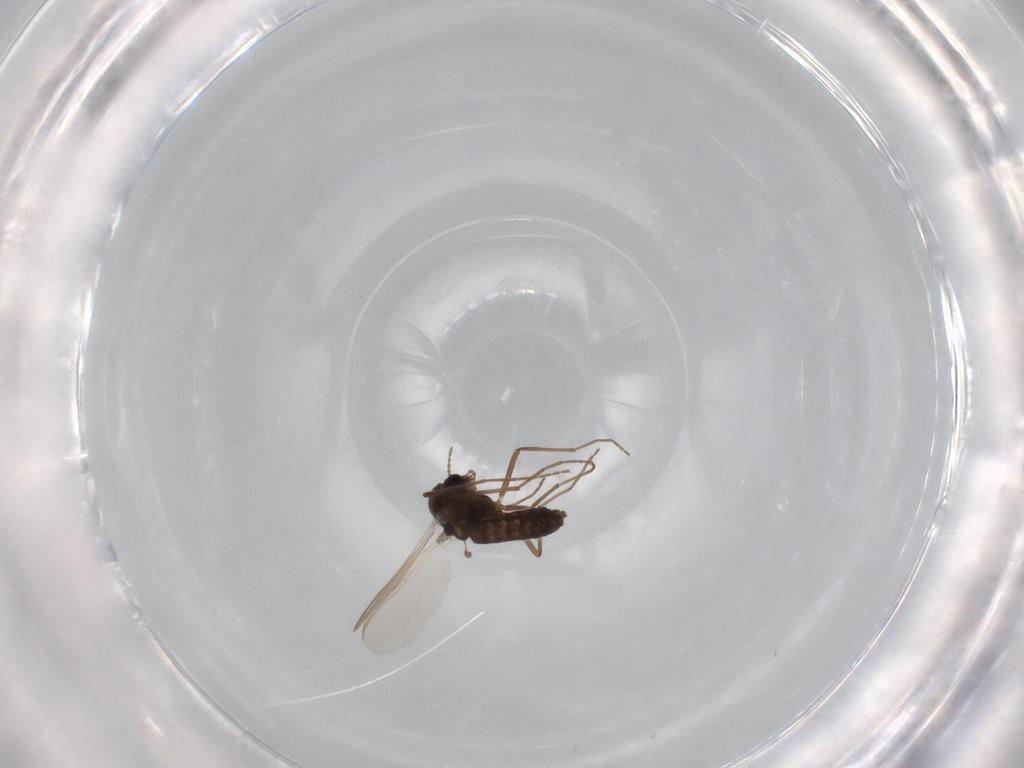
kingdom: Animalia
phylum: Arthropoda
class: Insecta
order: Diptera
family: Chironomidae
